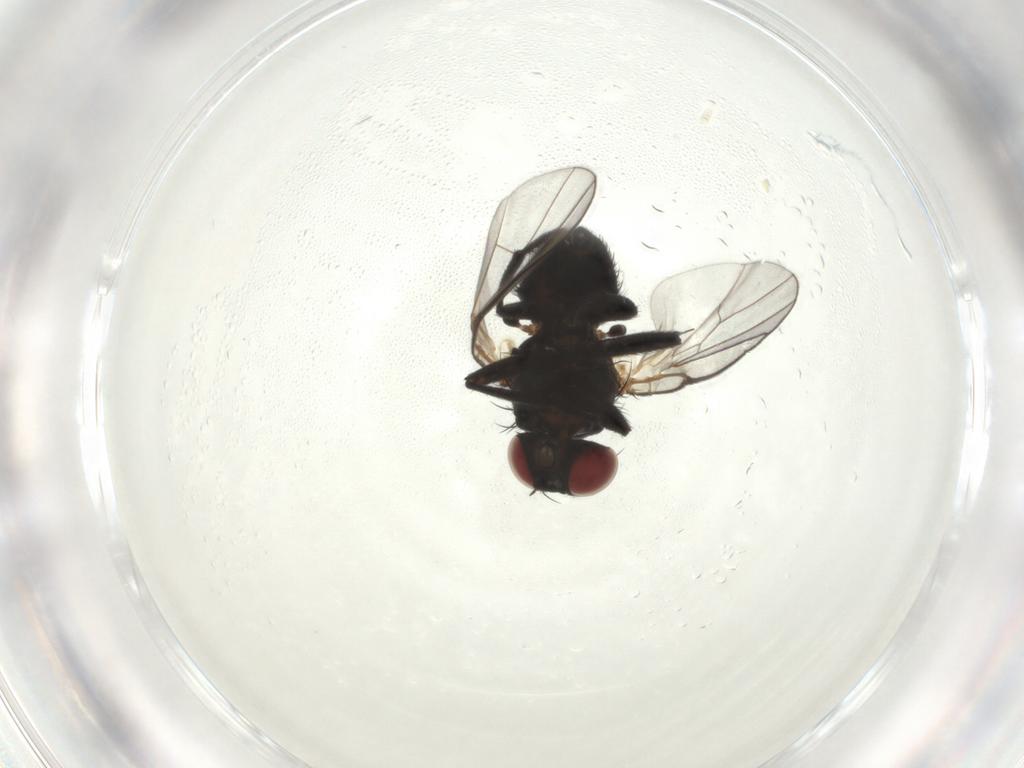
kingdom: Animalia
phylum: Arthropoda
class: Insecta
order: Diptera
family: Agromyzidae
